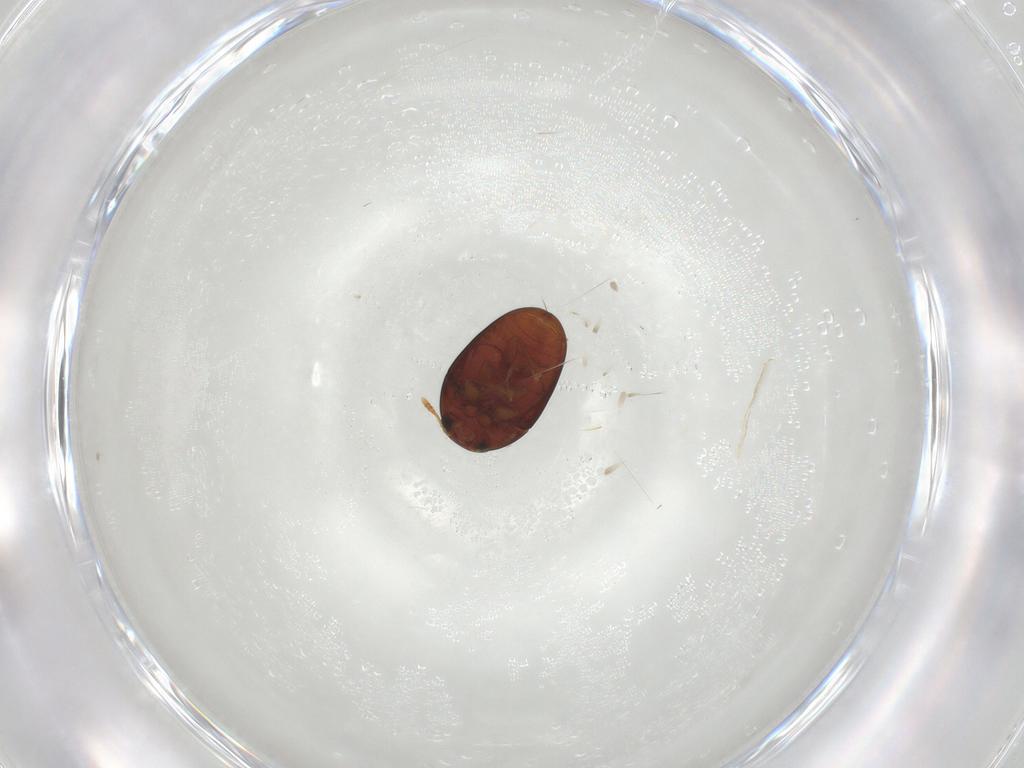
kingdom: Animalia
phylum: Arthropoda
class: Insecta
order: Coleoptera
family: Phalacridae
